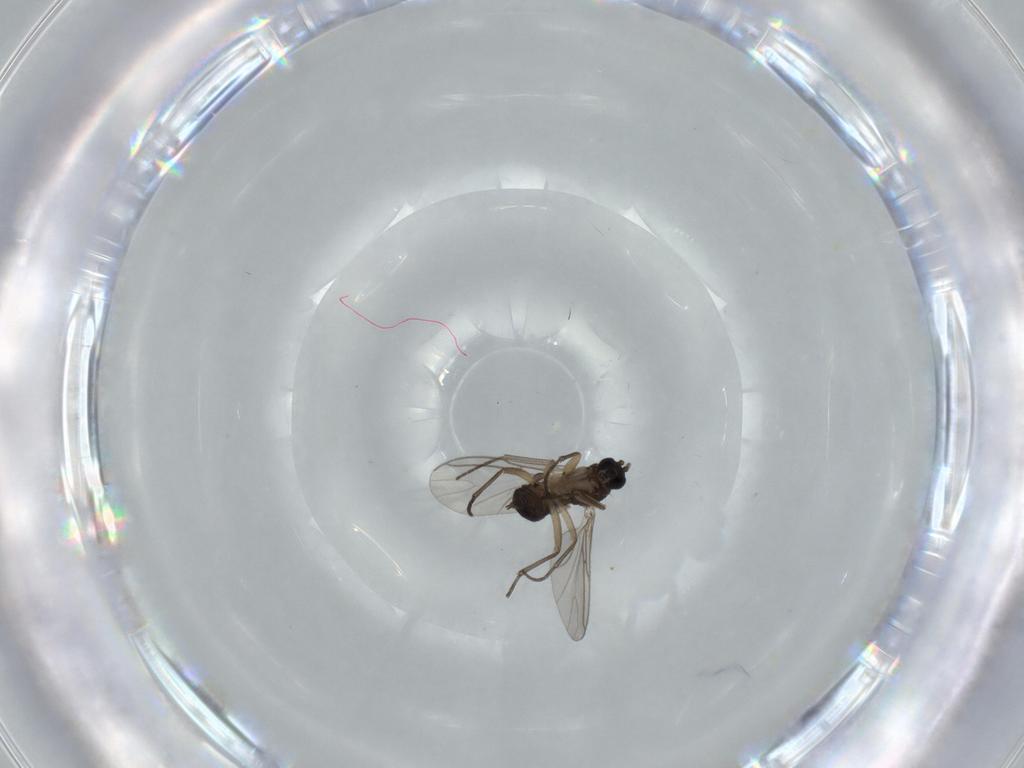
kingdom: Animalia
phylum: Arthropoda
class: Insecta
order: Diptera
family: Sciaridae
